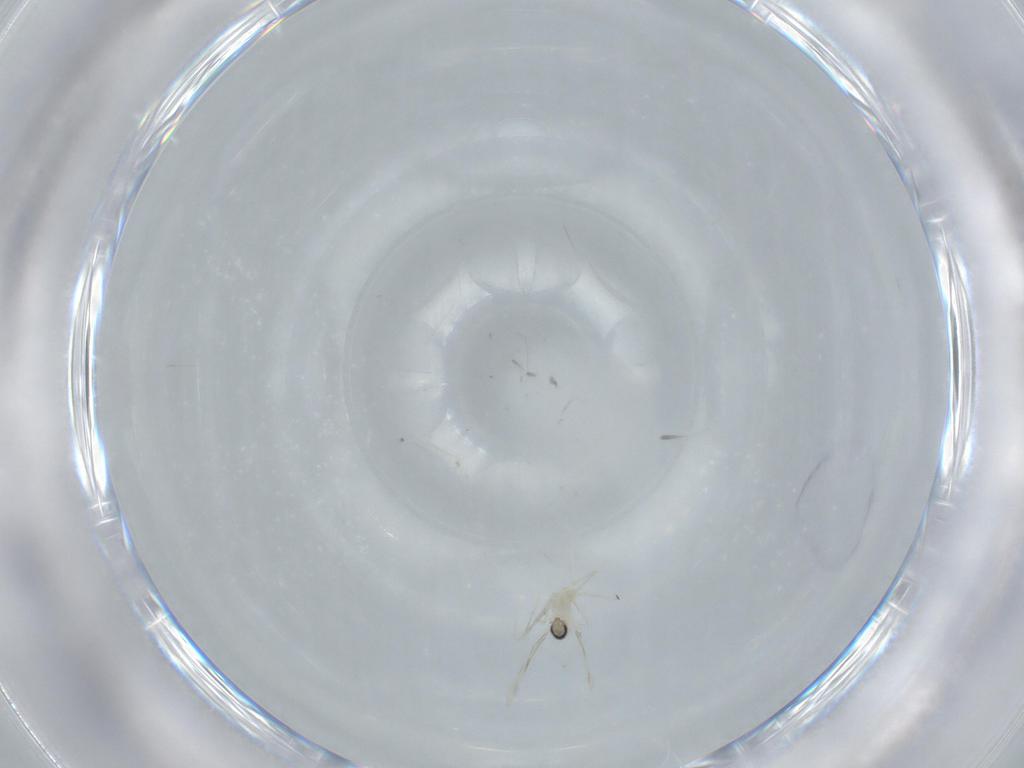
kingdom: Animalia
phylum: Arthropoda
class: Insecta
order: Diptera
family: Cecidomyiidae
